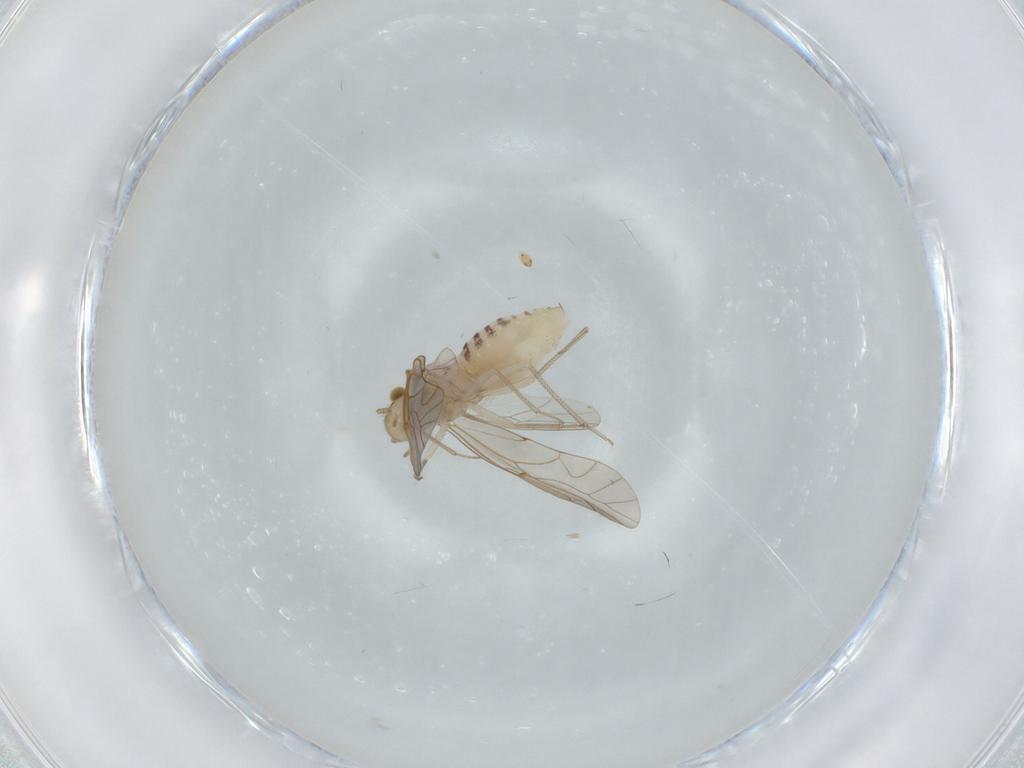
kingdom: Animalia
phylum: Arthropoda
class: Insecta
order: Psocodea
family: Lachesillidae
